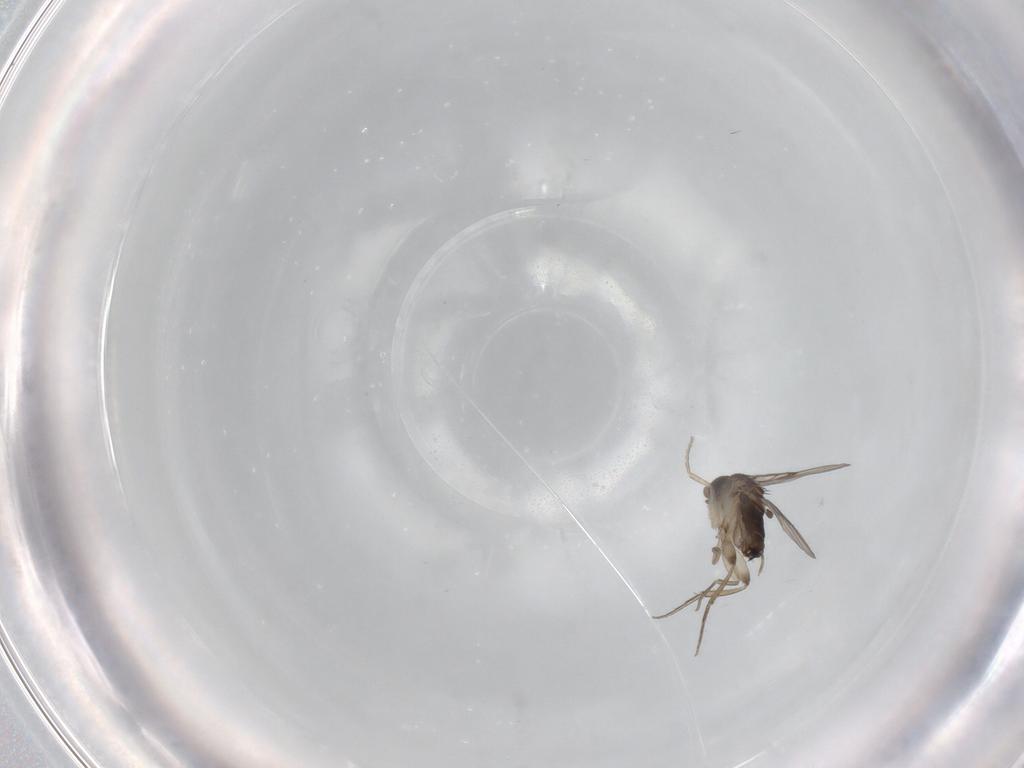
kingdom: Animalia
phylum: Arthropoda
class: Insecta
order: Diptera
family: Phoridae
